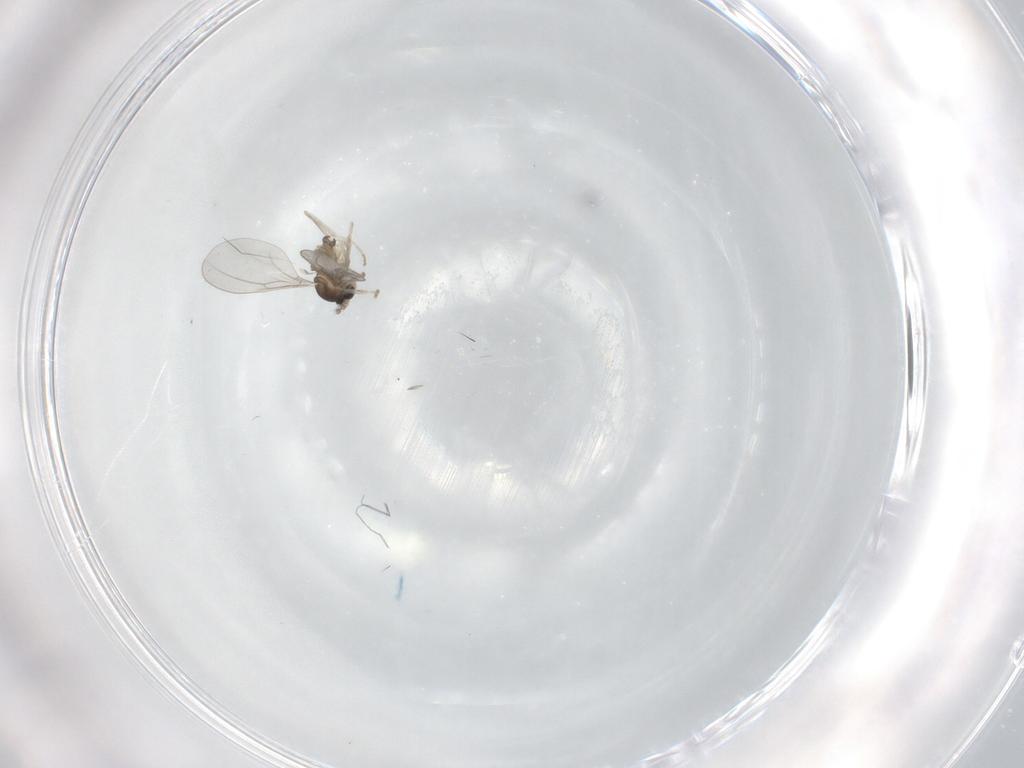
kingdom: Animalia
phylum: Arthropoda
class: Insecta
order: Diptera
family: Cecidomyiidae
